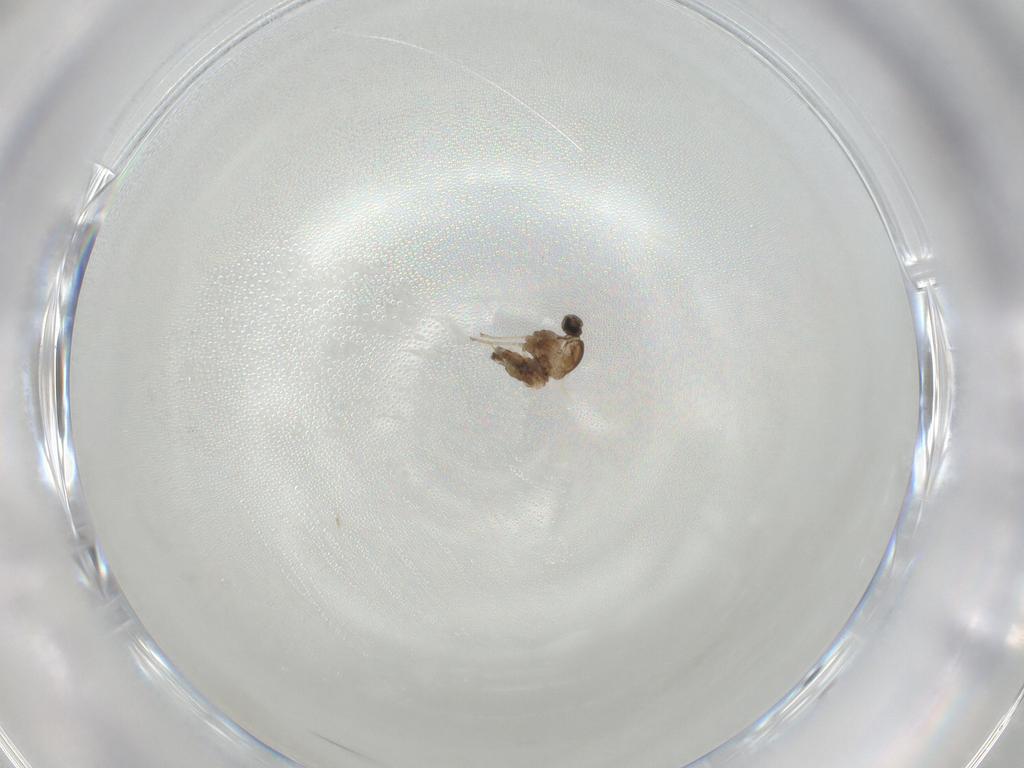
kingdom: Animalia
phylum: Arthropoda
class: Insecta
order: Diptera
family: Cecidomyiidae
